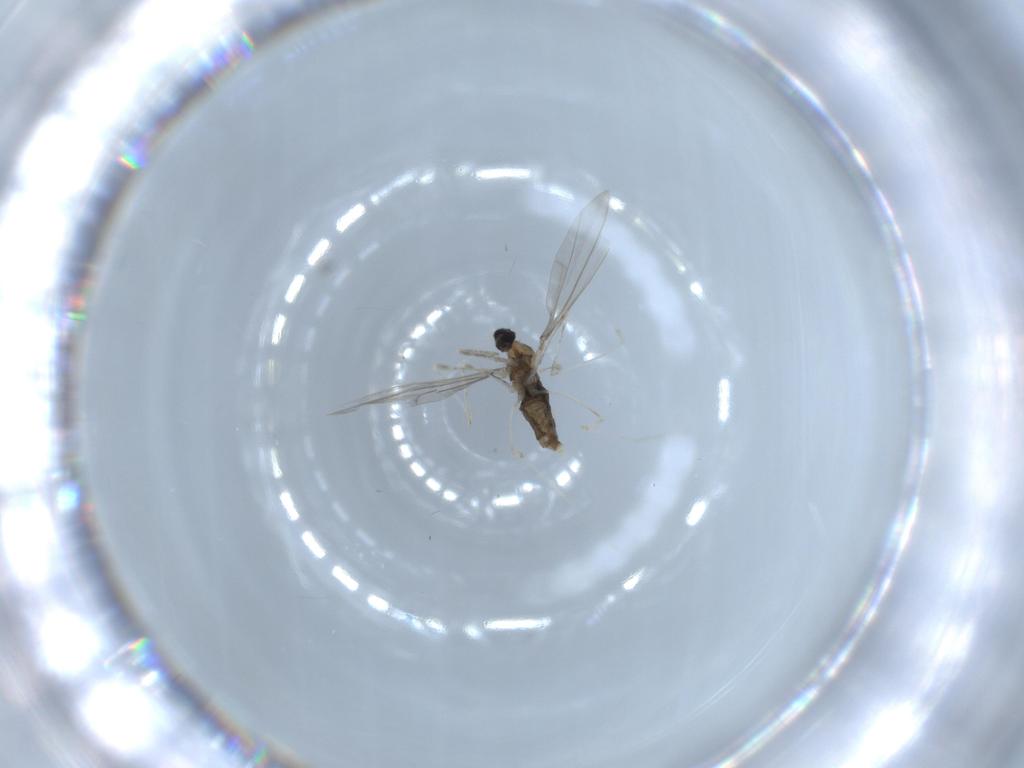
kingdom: Animalia
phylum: Arthropoda
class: Insecta
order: Diptera
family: Sciaridae
